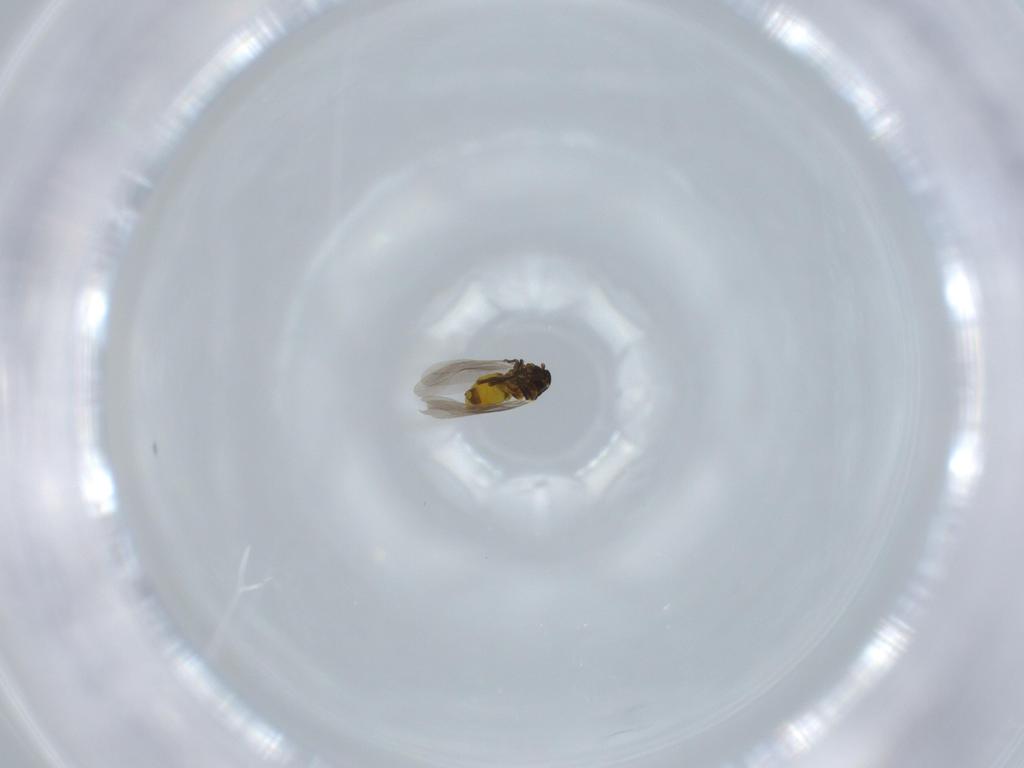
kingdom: Animalia
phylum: Arthropoda
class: Insecta
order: Hemiptera
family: Aleyrodidae
